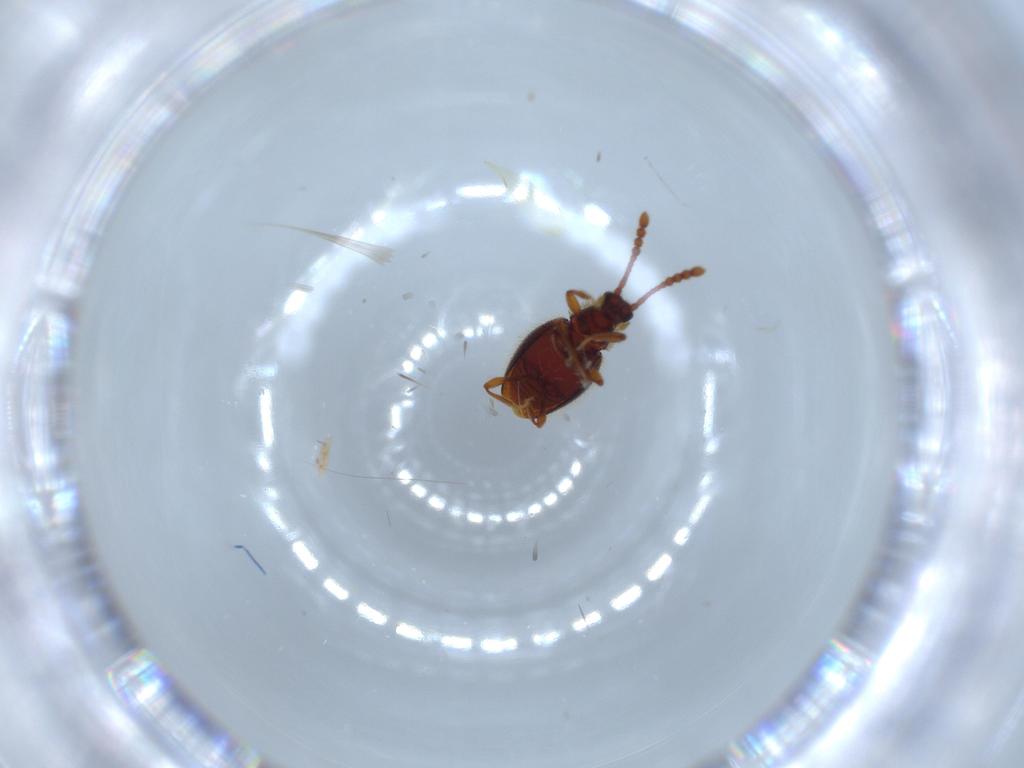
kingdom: Animalia
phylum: Arthropoda
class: Insecta
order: Coleoptera
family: Staphylinidae
